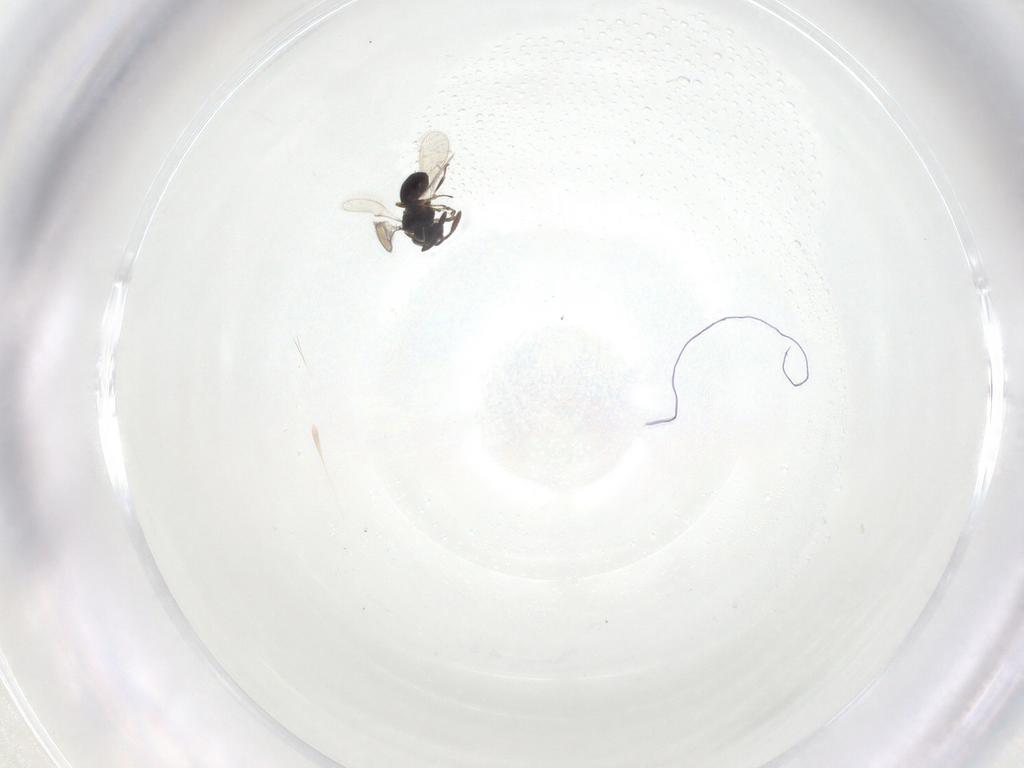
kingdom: Animalia
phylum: Arthropoda
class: Insecta
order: Hymenoptera
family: Scelionidae
